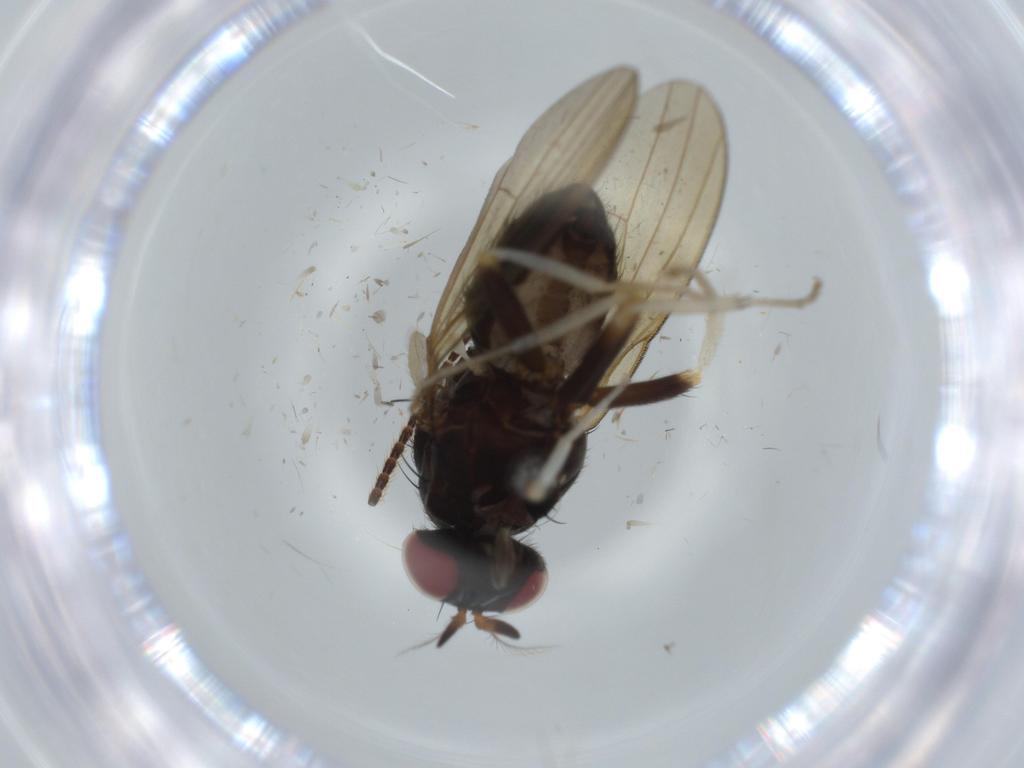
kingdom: Animalia
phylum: Arthropoda
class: Insecta
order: Diptera
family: Lauxaniidae
